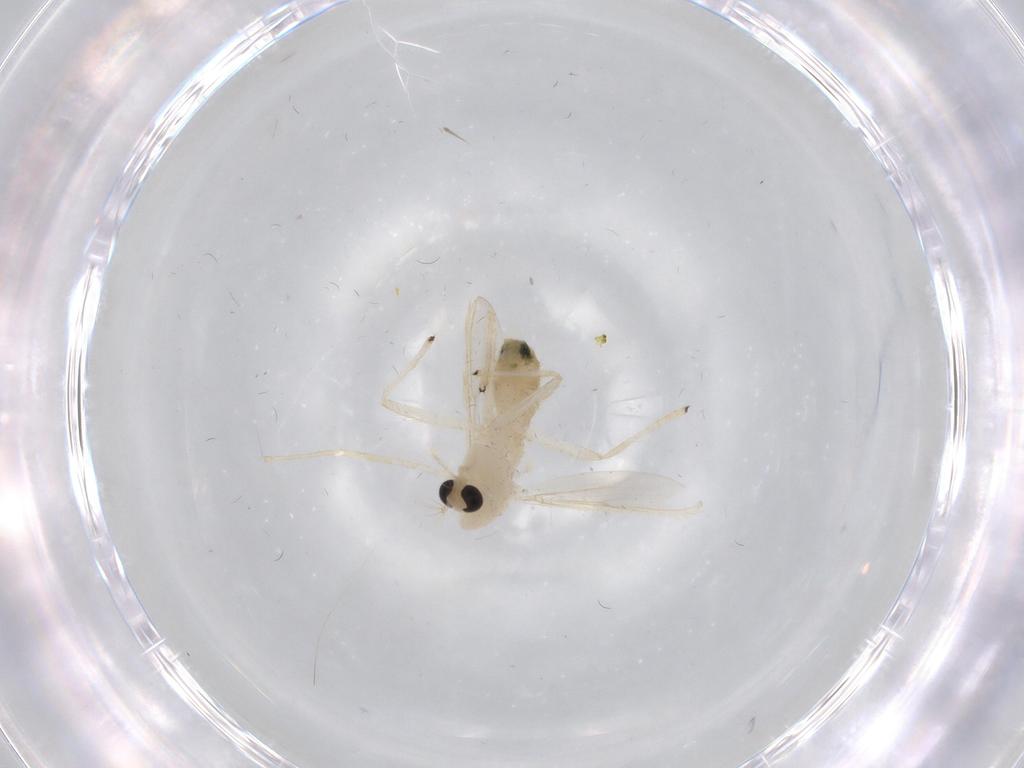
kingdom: Animalia
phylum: Arthropoda
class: Insecta
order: Diptera
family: Chironomidae
